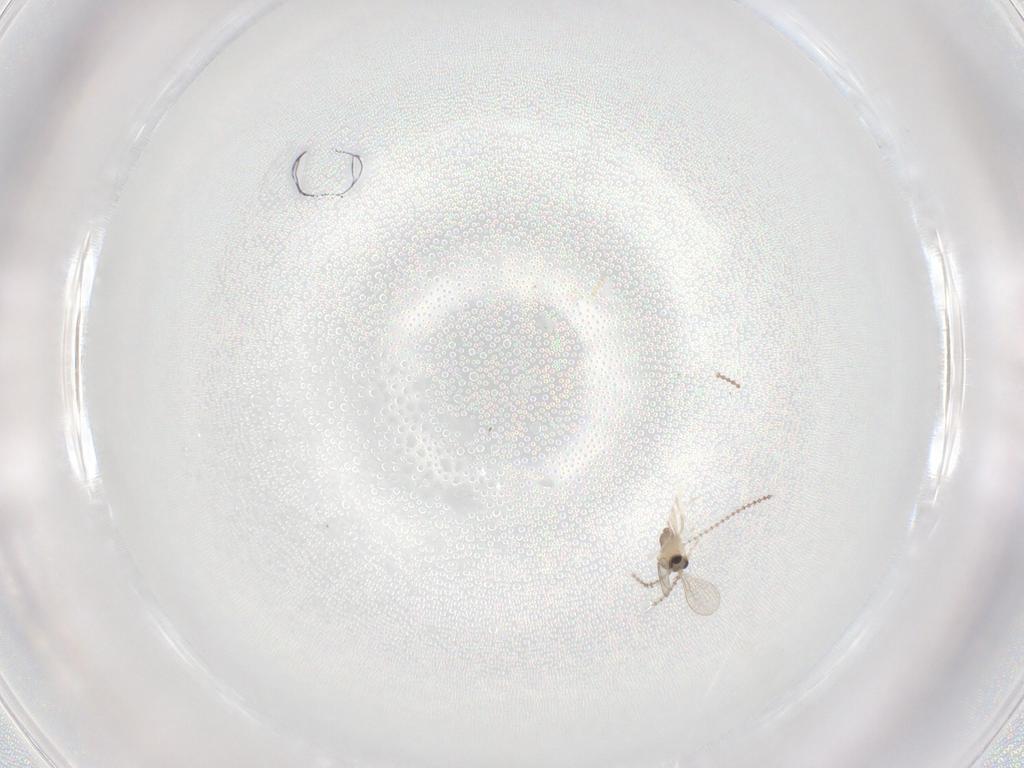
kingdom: Animalia
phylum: Arthropoda
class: Insecta
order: Diptera
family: Cecidomyiidae
